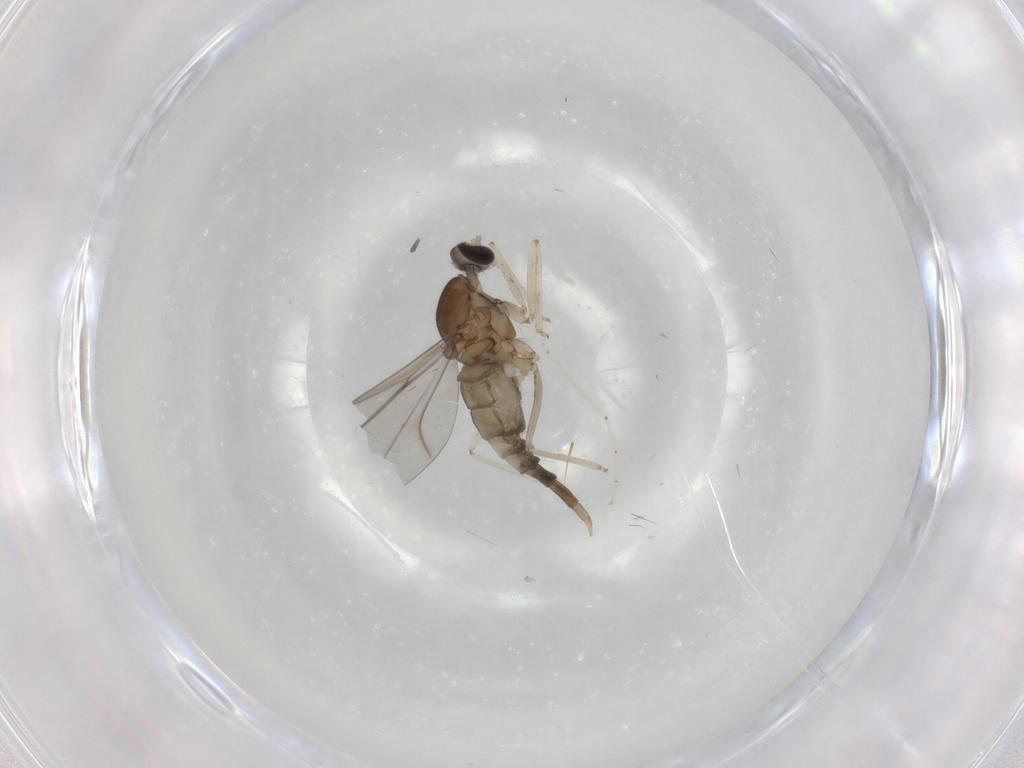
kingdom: Animalia
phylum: Arthropoda
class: Insecta
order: Diptera
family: Cecidomyiidae
